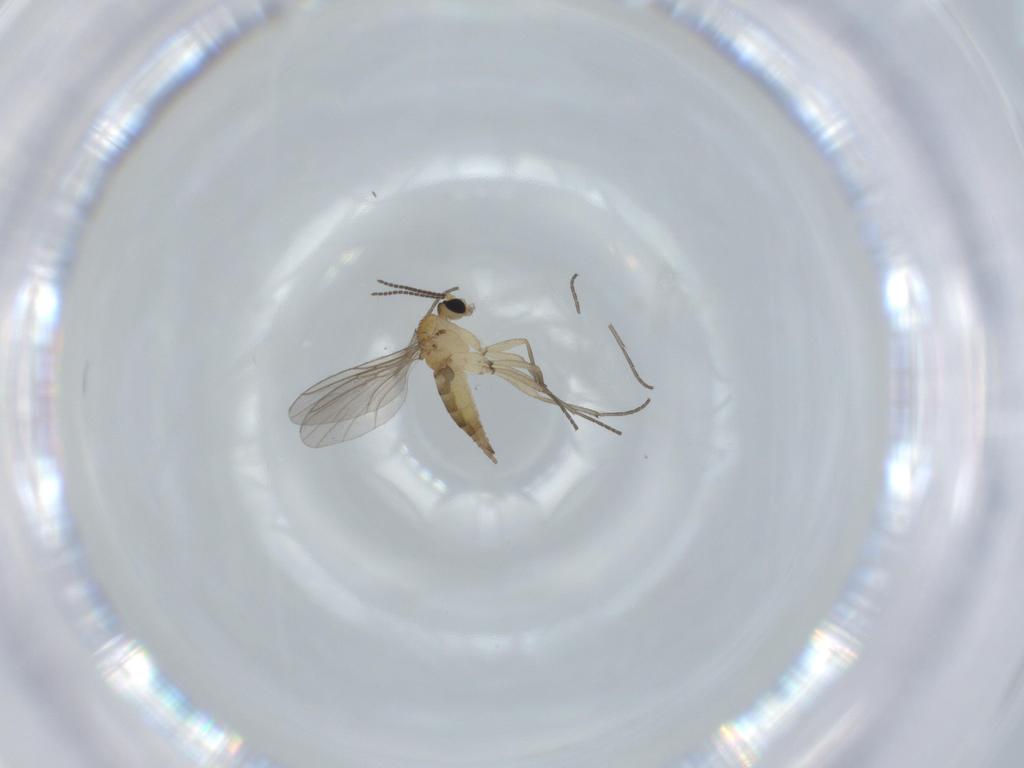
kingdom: Animalia
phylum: Arthropoda
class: Insecta
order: Diptera
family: Sciaridae
